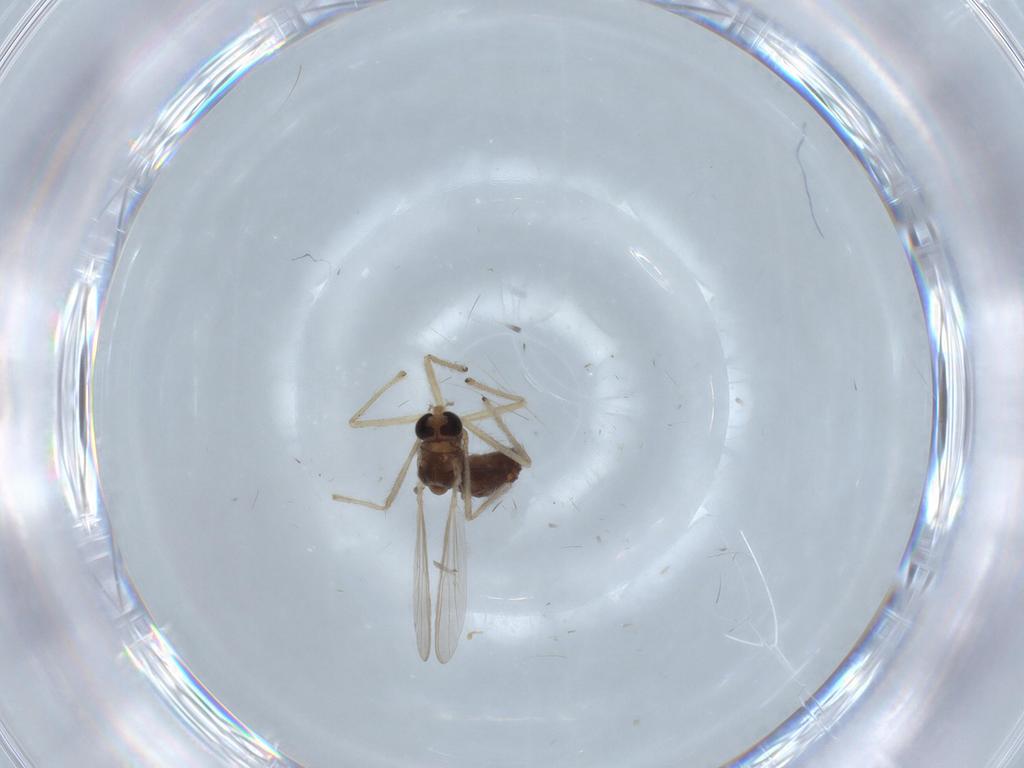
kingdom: Animalia
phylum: Arthropoda
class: Insecta
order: Diptera
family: Chironomidae
